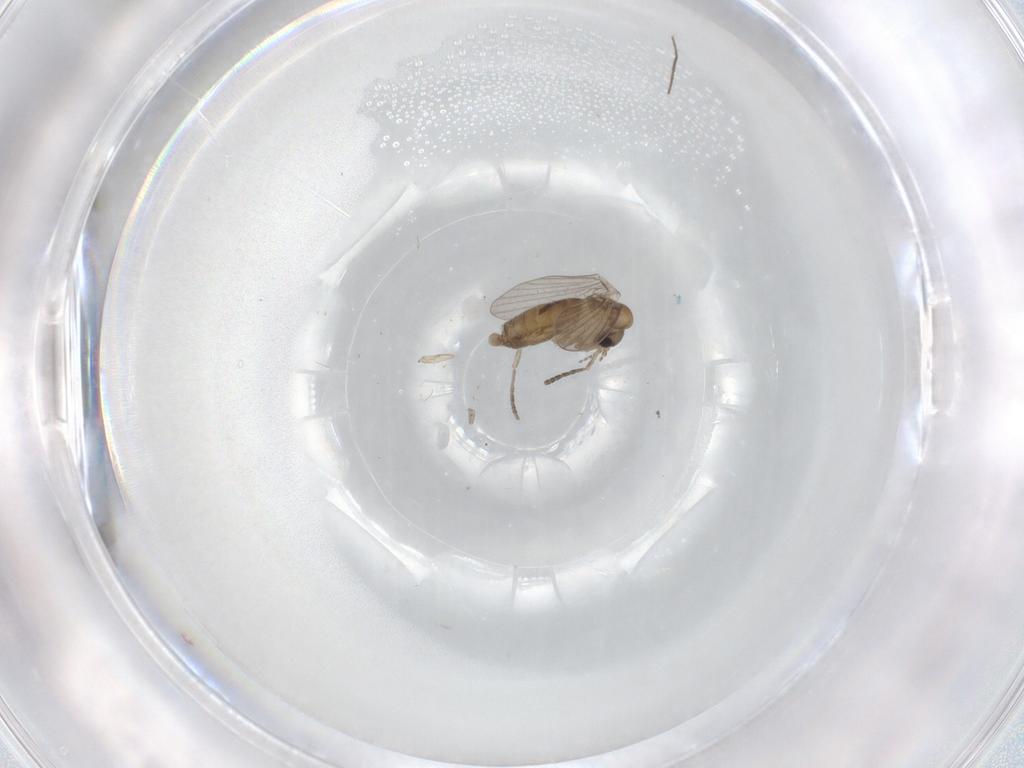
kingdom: Animalia
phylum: Arthropoda
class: Insecta
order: Diptera
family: Psychodidae
